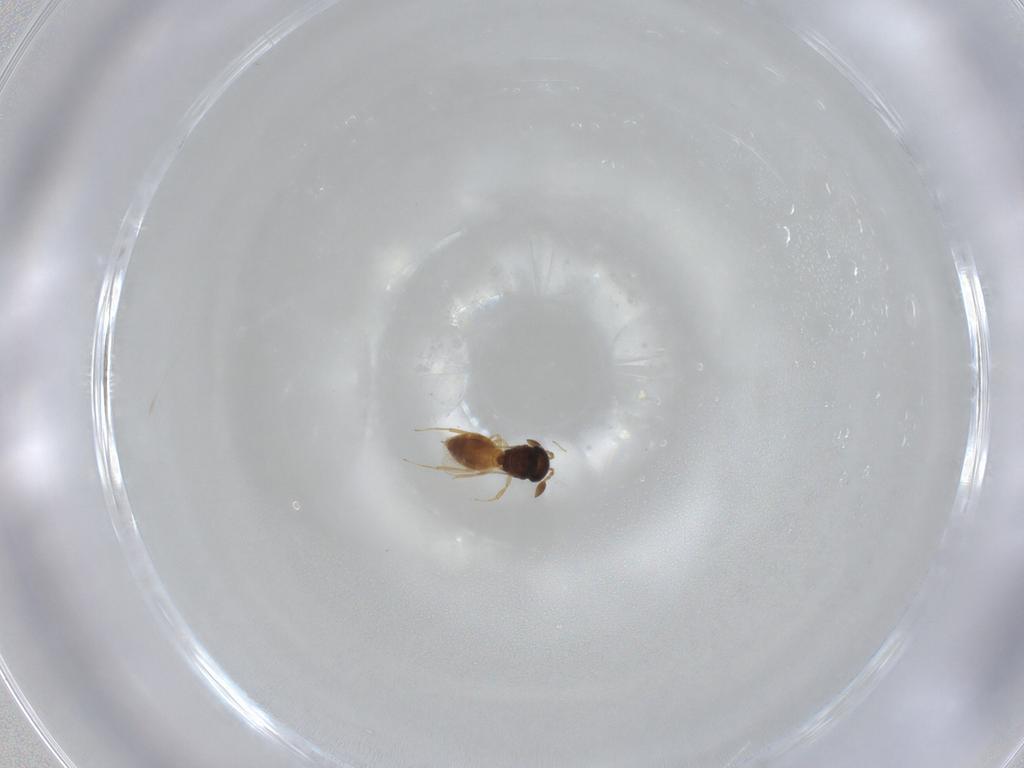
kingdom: Animalia
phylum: Arthropoda
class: Insecta
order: Hymenoptera
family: Scelionidae
